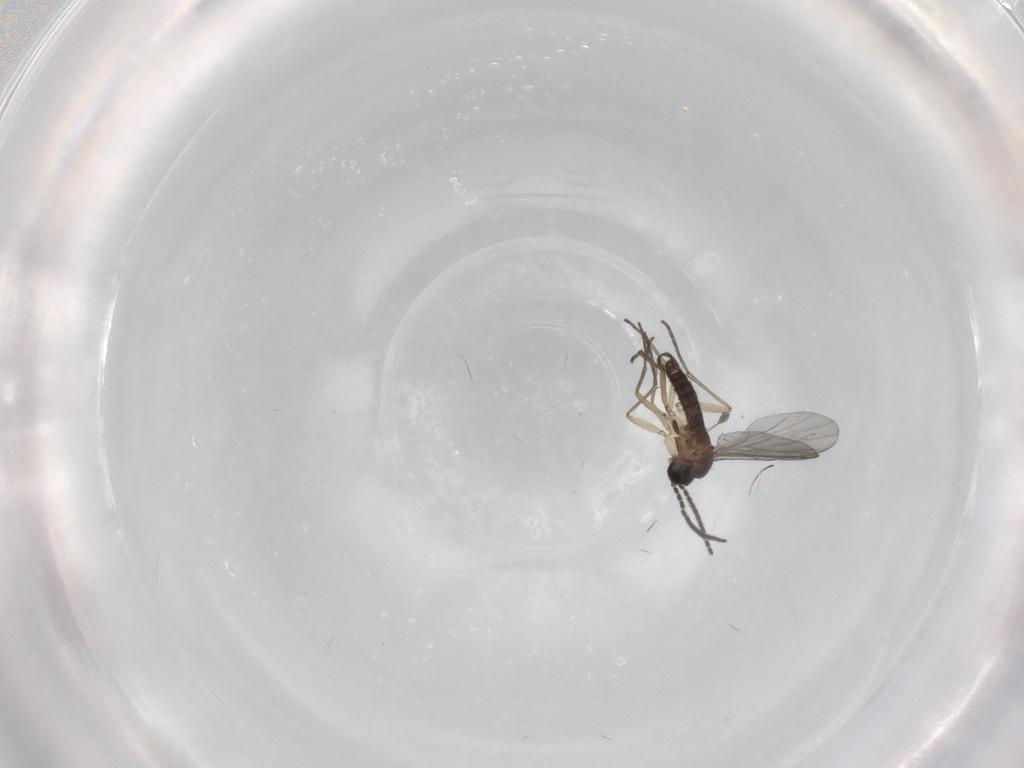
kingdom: Animalia
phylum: Arthropoda
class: Insecta
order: Diptera
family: Sciaridae
